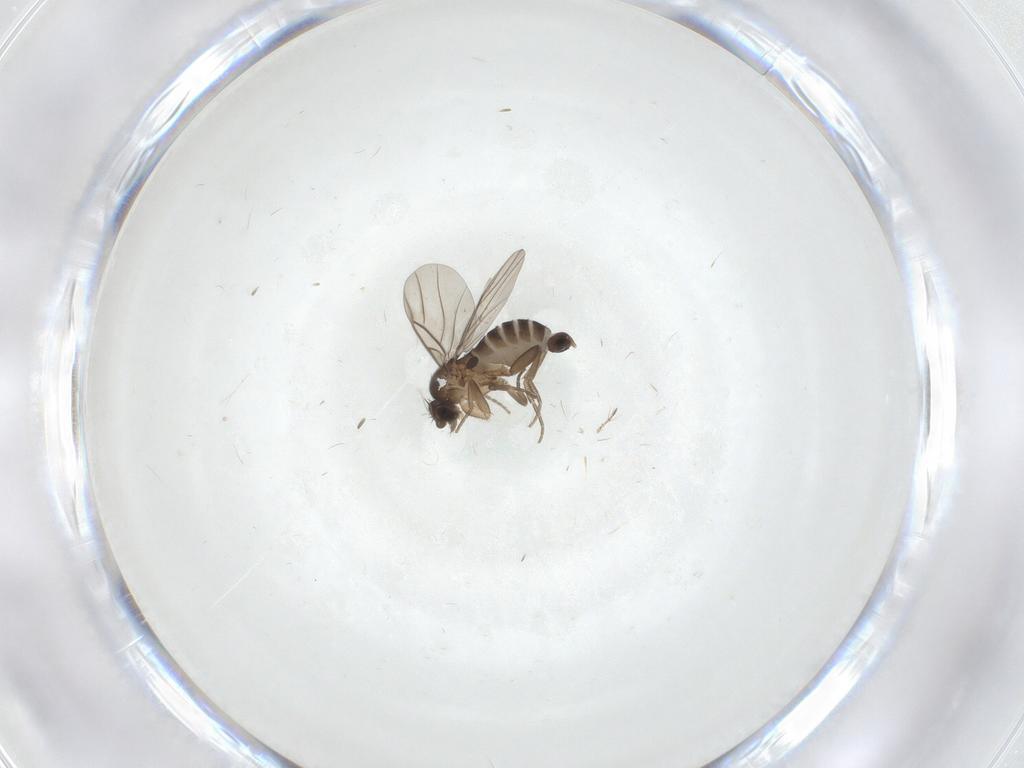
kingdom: Animalia
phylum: Arthropoda
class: Insecta
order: Diptera
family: Phoridae
